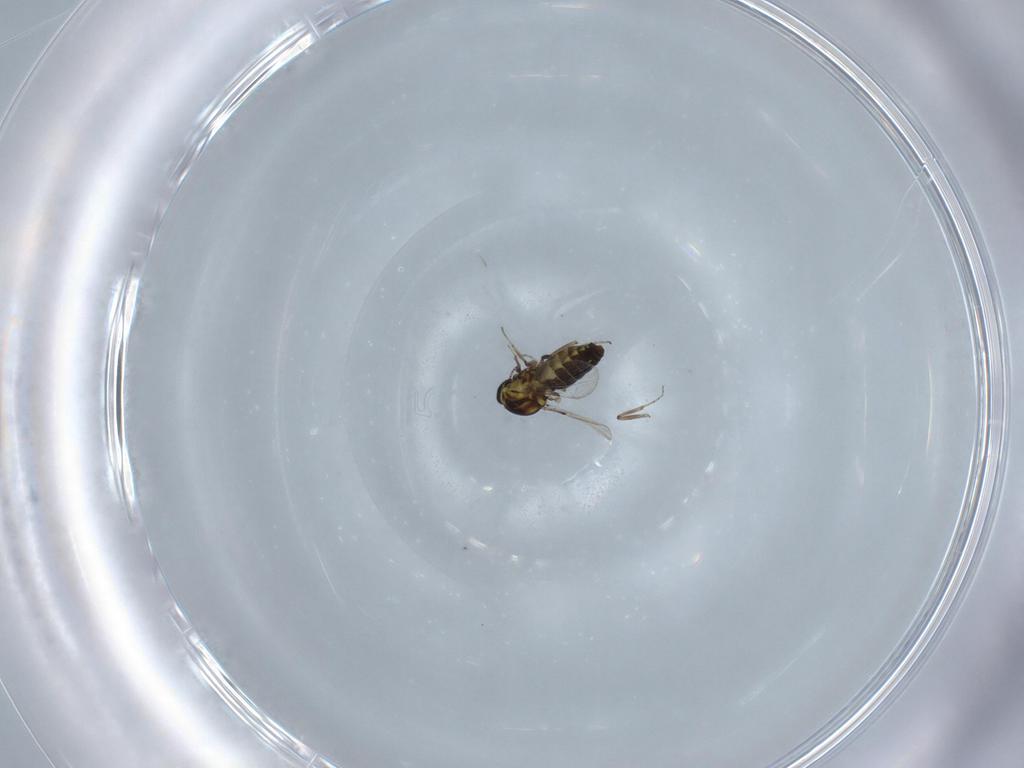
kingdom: Animalia
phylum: Arthropoda
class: Insecta
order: Diptera
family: Ceratopogonidae
